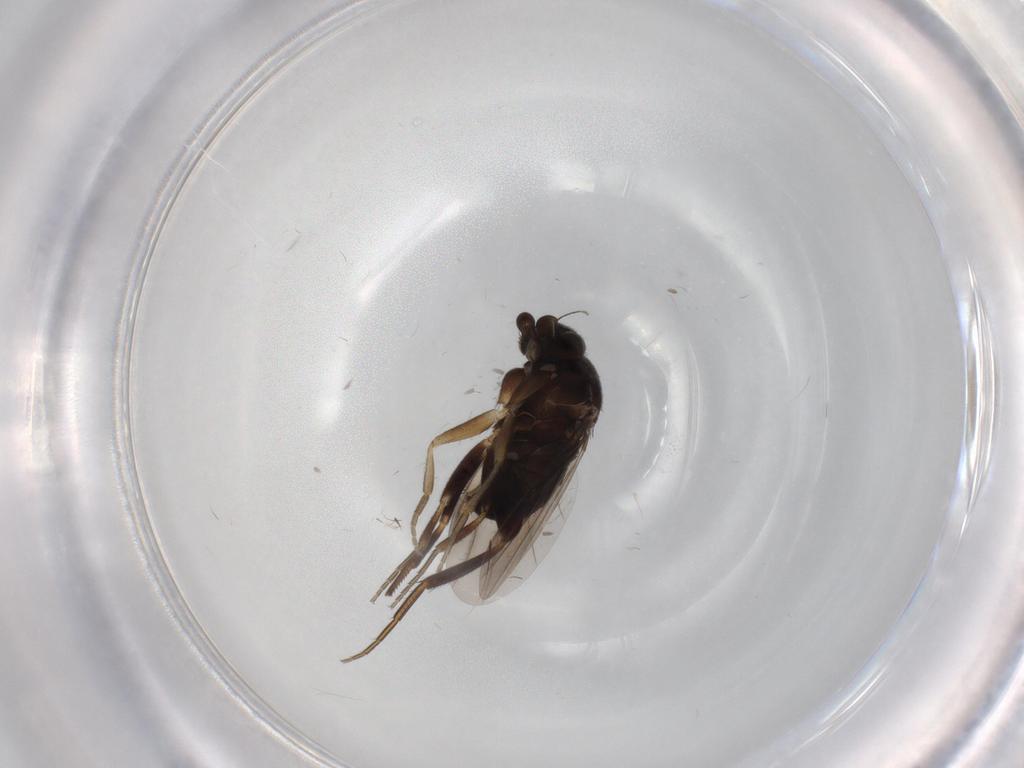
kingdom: Animalia
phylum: Arthropoda
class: Insecta
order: Diptera
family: Phoridae
